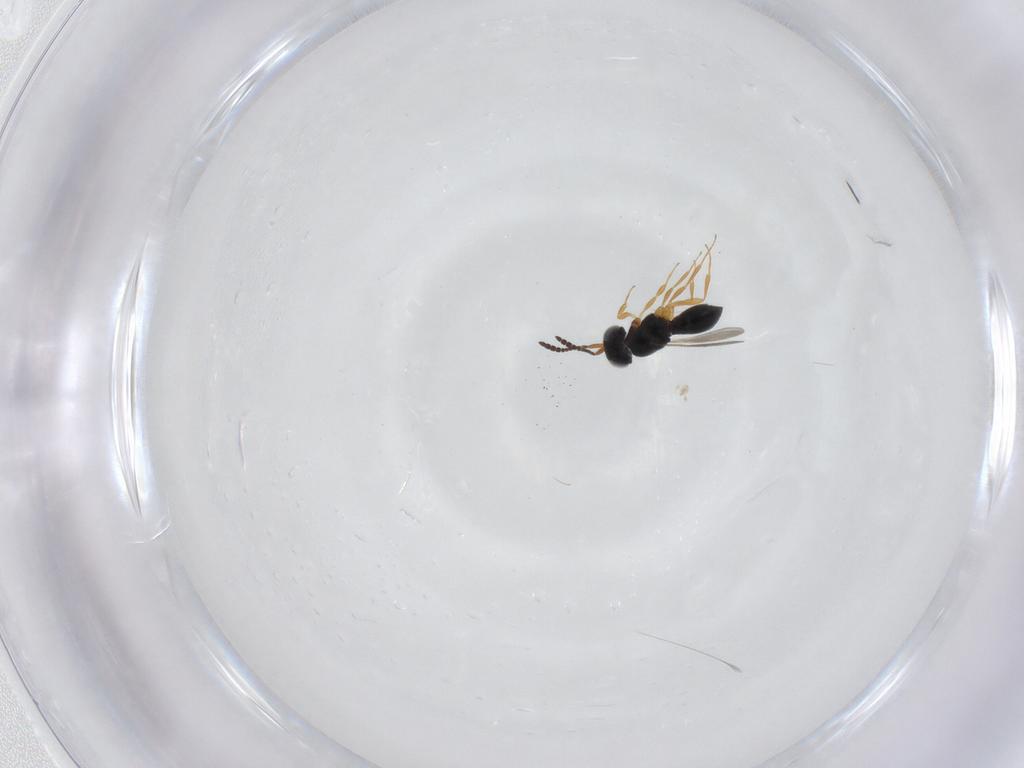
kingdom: Animalia
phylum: Arthropoda
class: Insecta
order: Hymenoptera
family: Scelionidae
